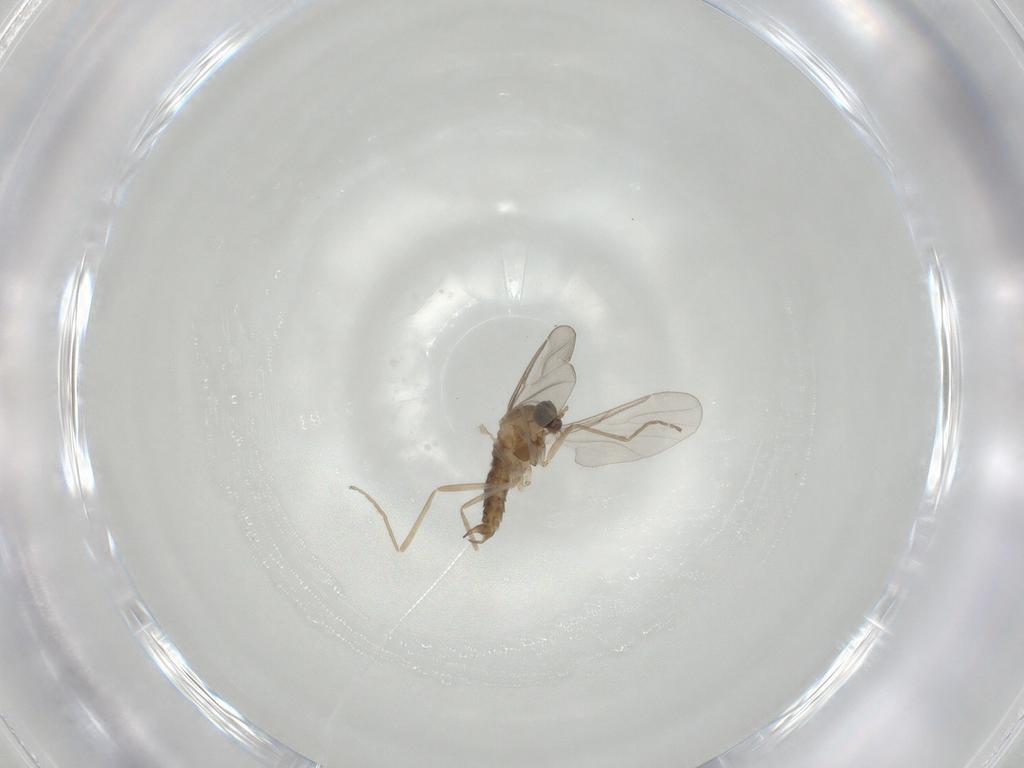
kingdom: Animalia
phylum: Arthropoda
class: Insecta
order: Diptera
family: Cecidomyiidae
